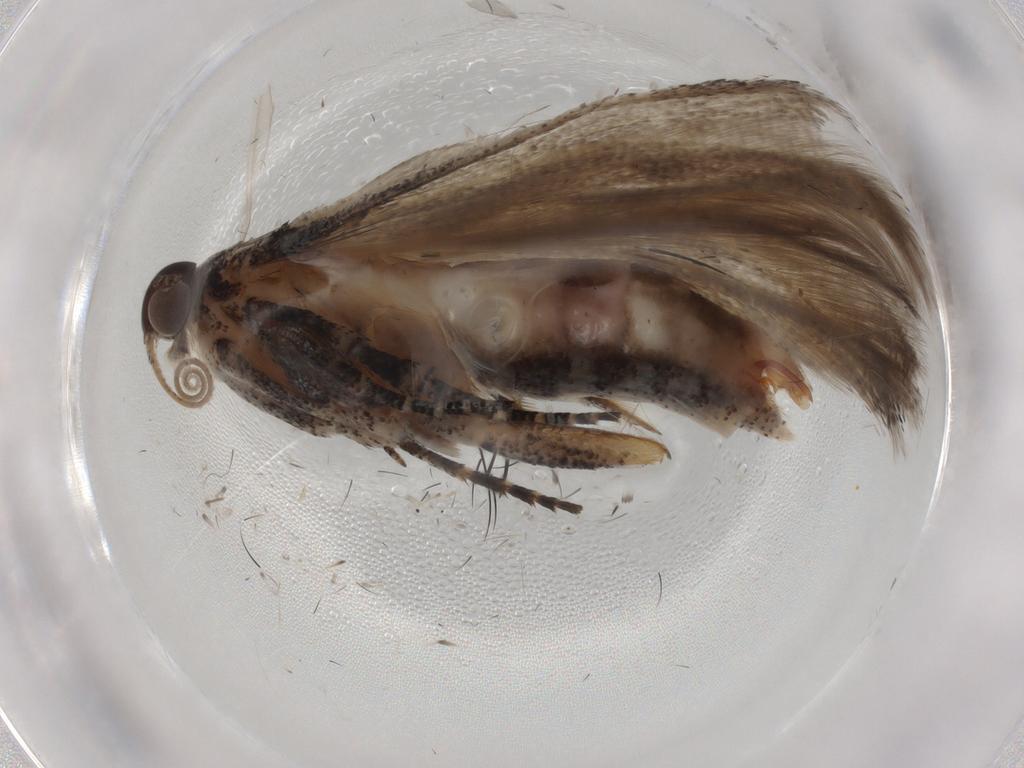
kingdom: Animalia
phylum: Arthropoda
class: Insecta
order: Lepidoptera
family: Gelechiidae
